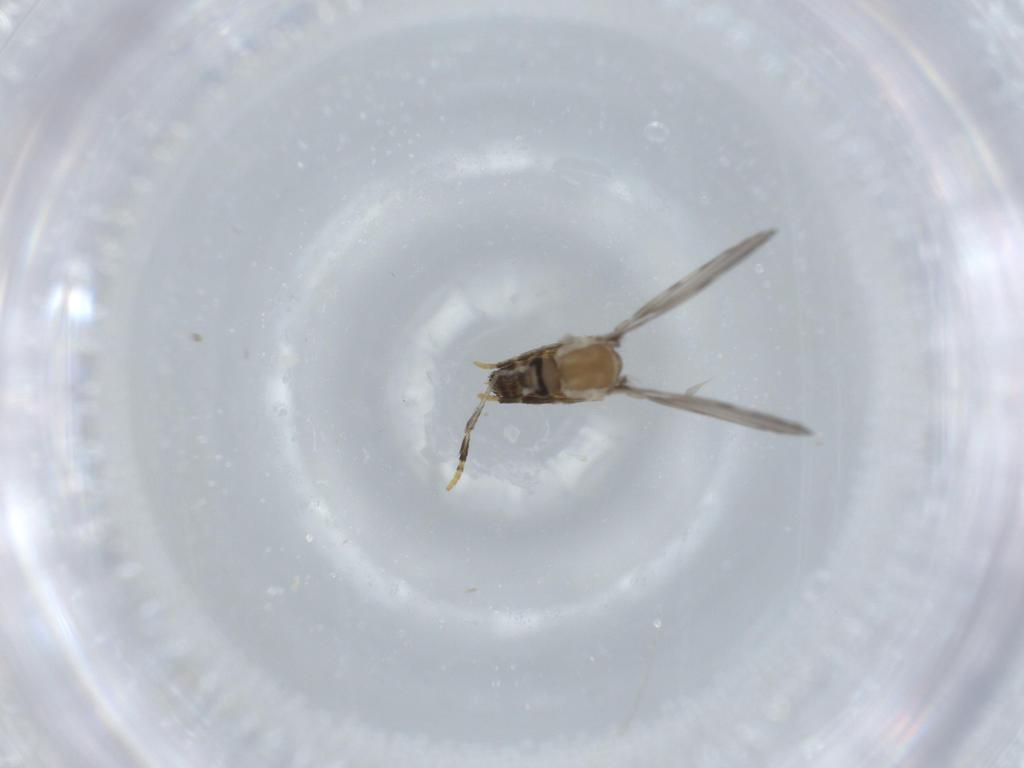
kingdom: Animalia
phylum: Arthropoda
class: Insecta
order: Diptera
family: Psychodidae
